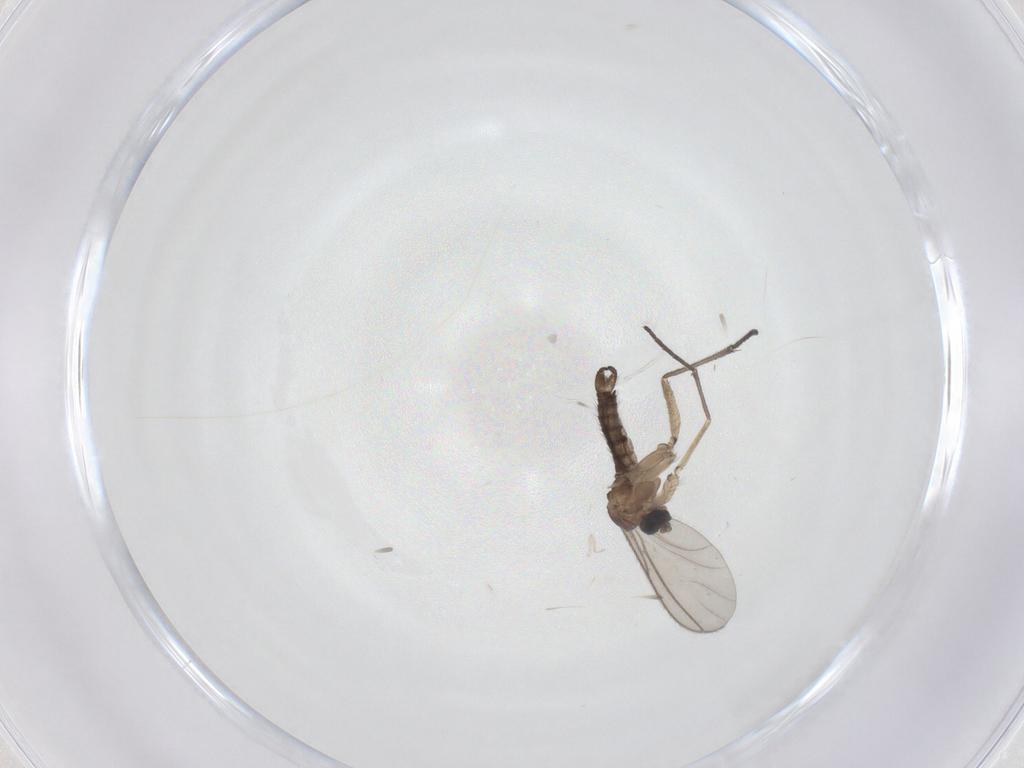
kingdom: Animalia
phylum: Arthropoda
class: Insecta
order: Diptera
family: Sciaridae
